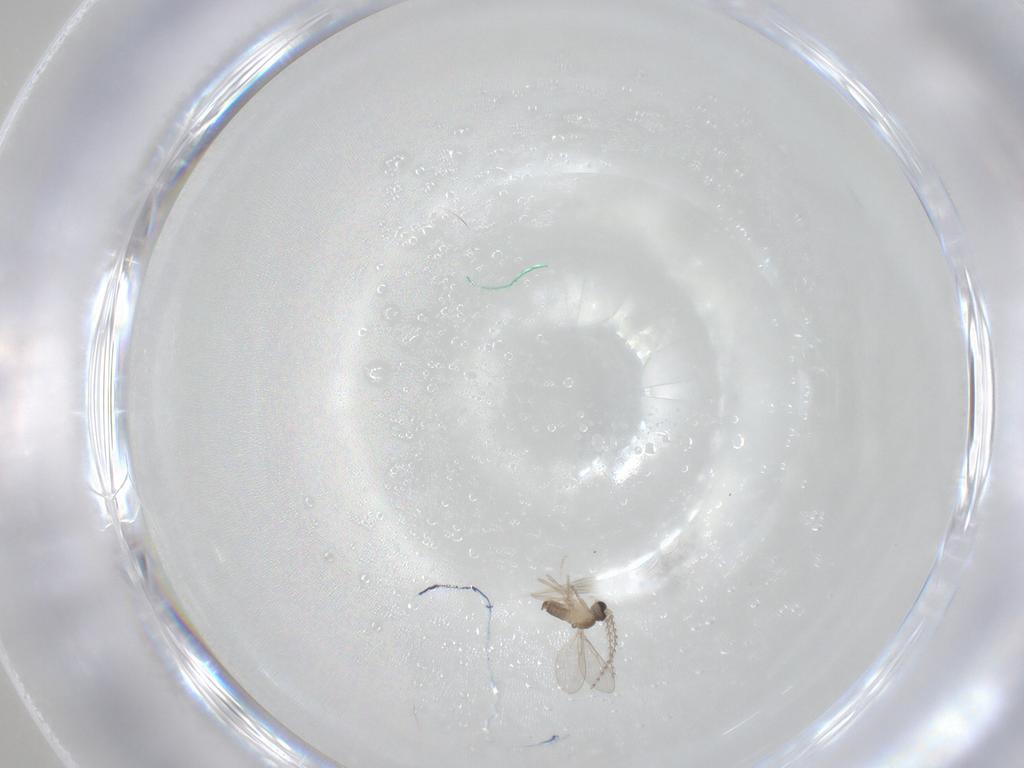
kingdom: Animalia
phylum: Arthropoda
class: Insecta
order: Diptera
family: Cecidomyiidae
